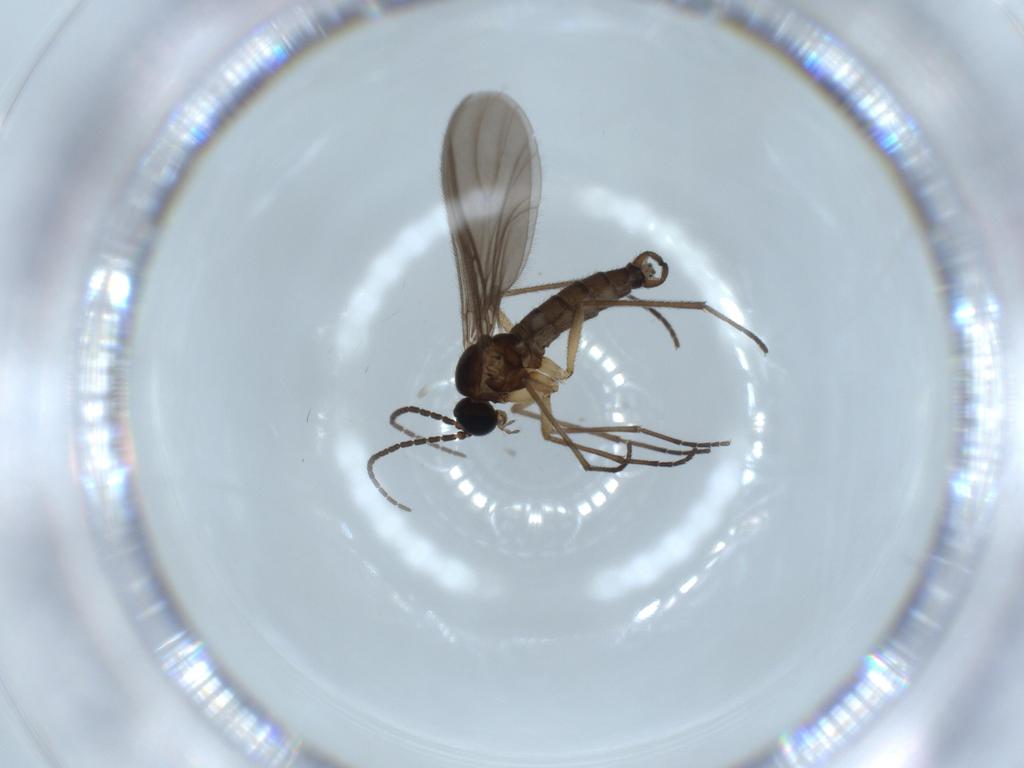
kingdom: Animalia
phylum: Arthropoda
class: Insecta
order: Diptera
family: Sciaridae
